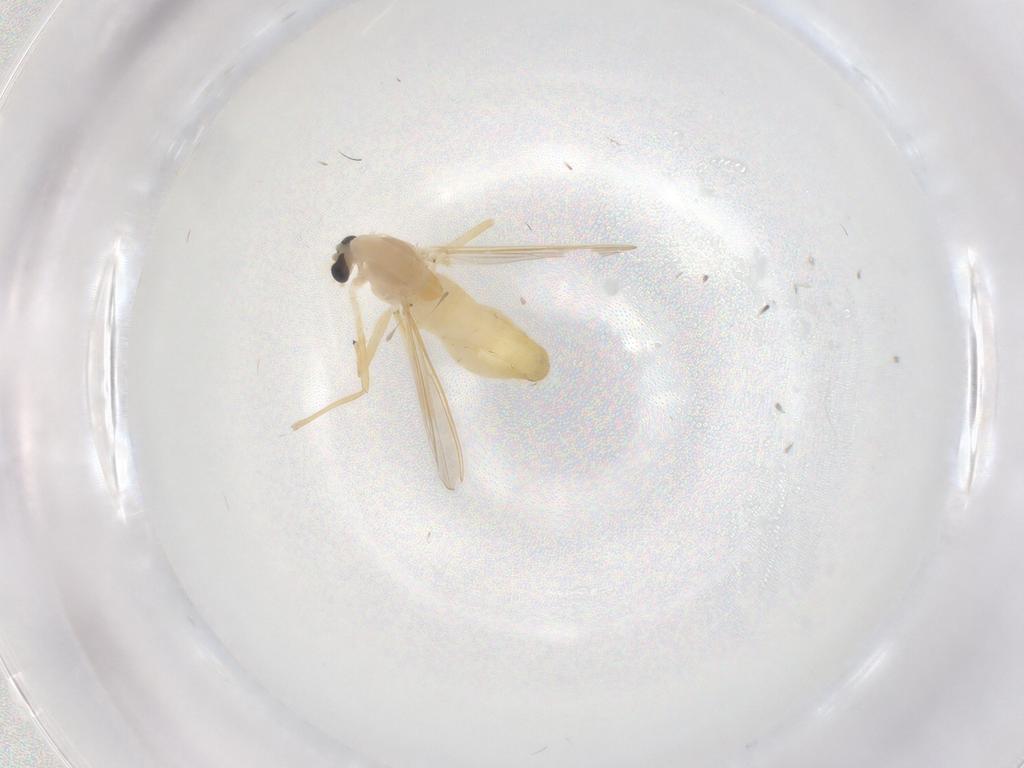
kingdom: Animalia
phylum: Arthropoda
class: Insecta
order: Diptera
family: Chironomidae
